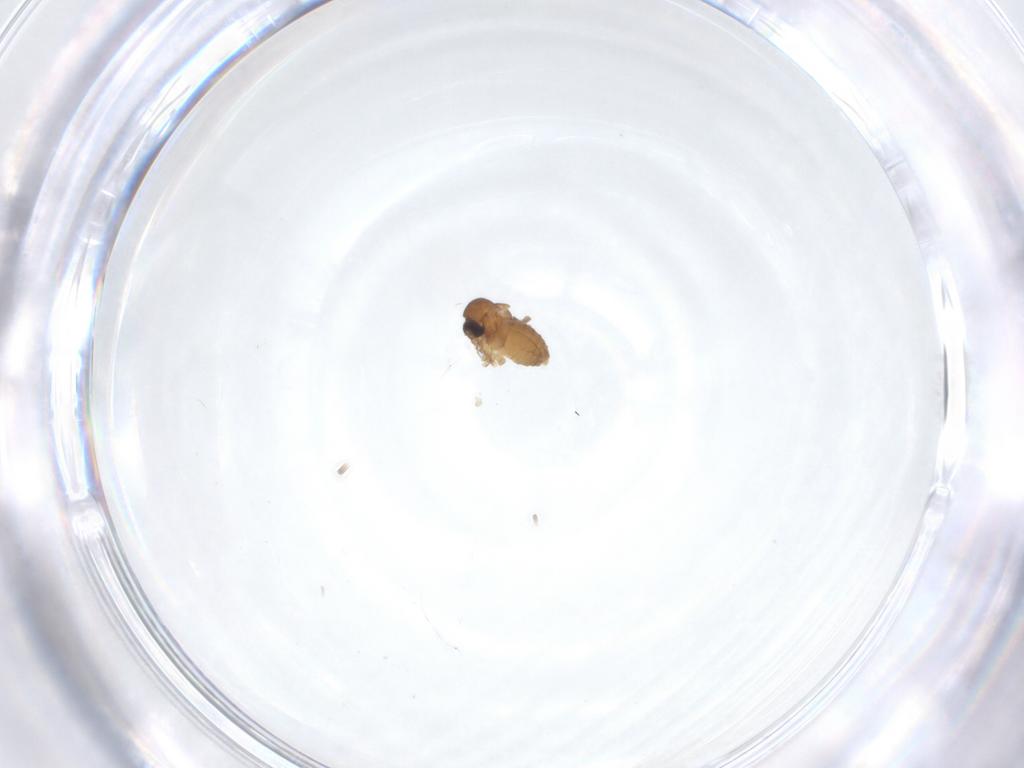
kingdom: Animalia
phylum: Arthropoda
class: Insecta
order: Diptera
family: Psychodidae
